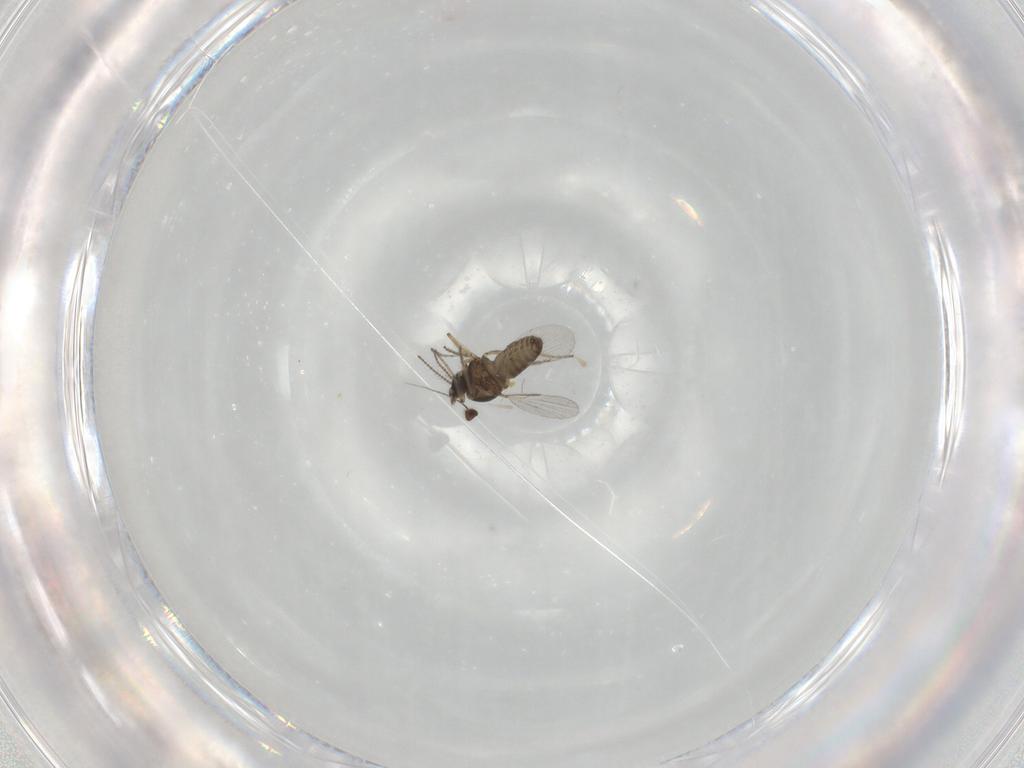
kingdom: Animalia
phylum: Arthropoda
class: Insecta
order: Diptera
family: Ceratopogonidae
